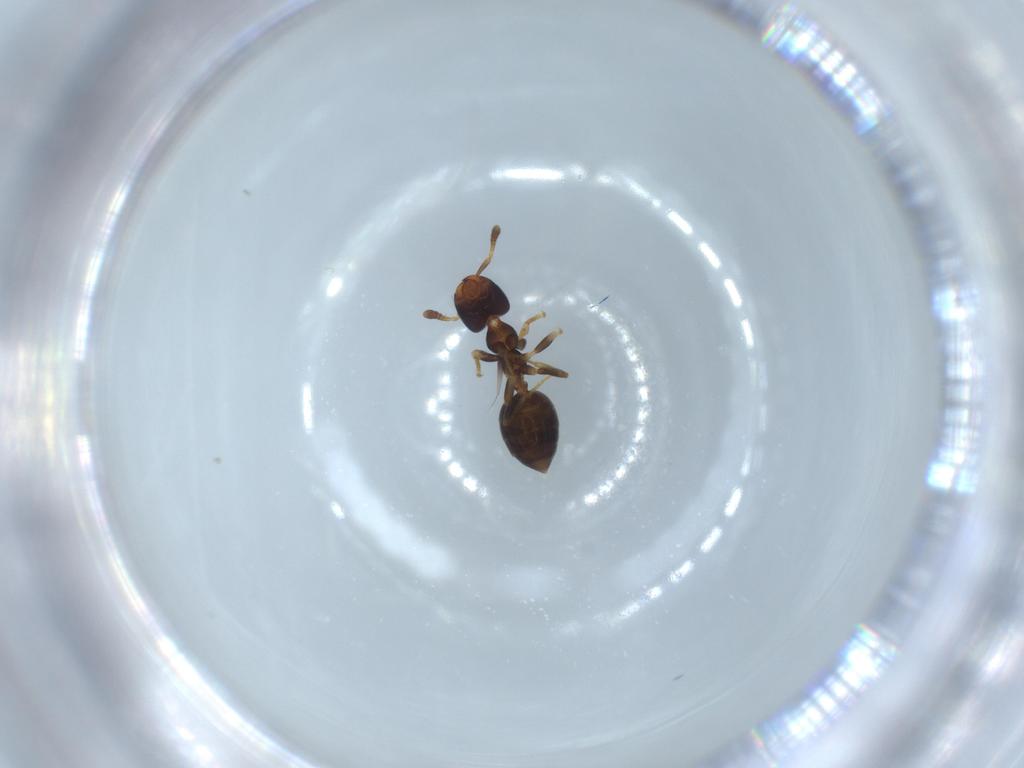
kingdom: Animalia
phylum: Arthropoda
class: Insecta
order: Hymenoptera
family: Formicidae
